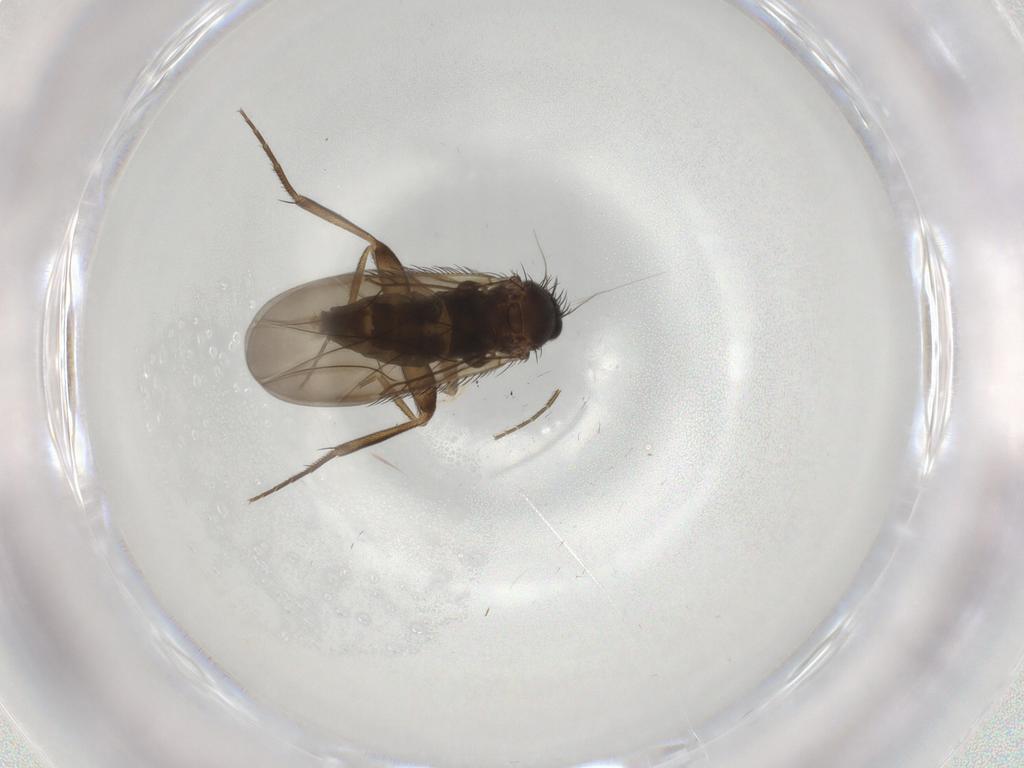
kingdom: Animalia
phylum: Arthropoda
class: Insecta
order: Diptera
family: Phoridae
